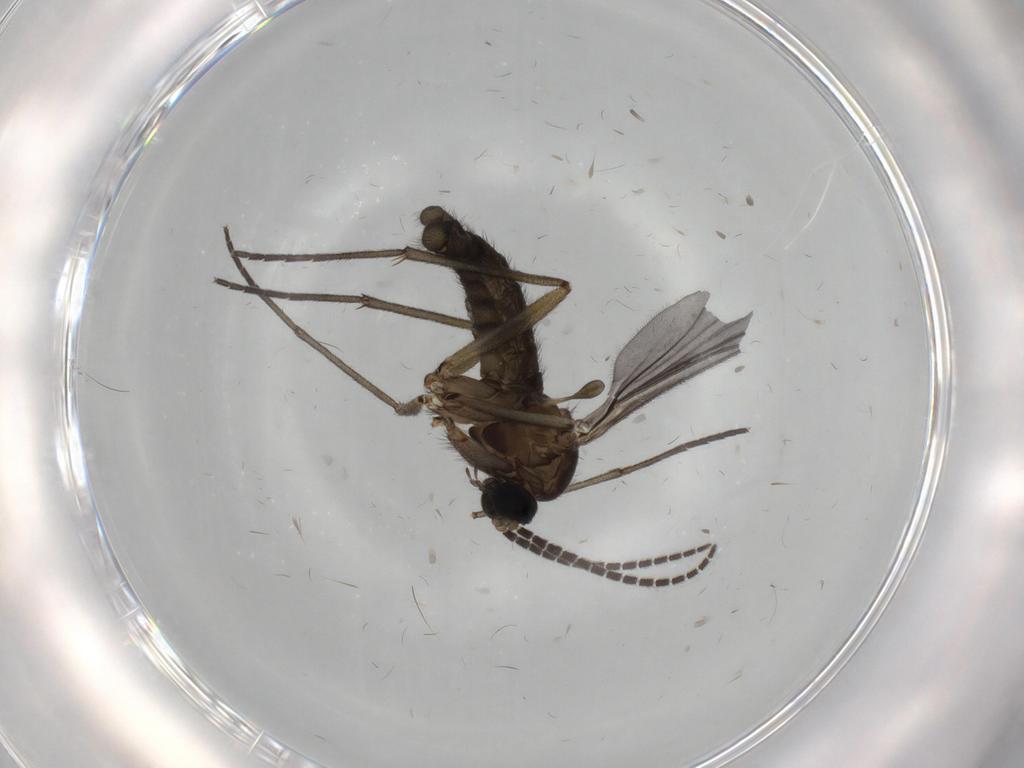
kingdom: Animalia
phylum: Arthropoda
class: Insecta
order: Diptera
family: Sciaridae
